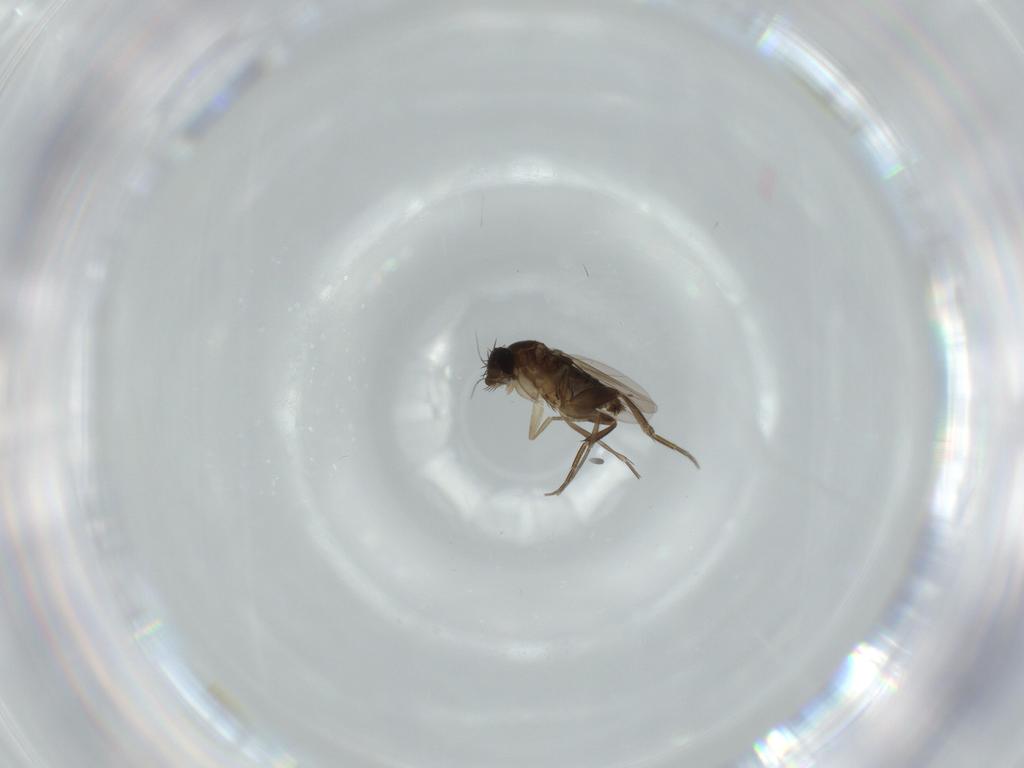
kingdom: Animalia
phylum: Arthropoda
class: Insecta
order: Diptera
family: Phoridae
